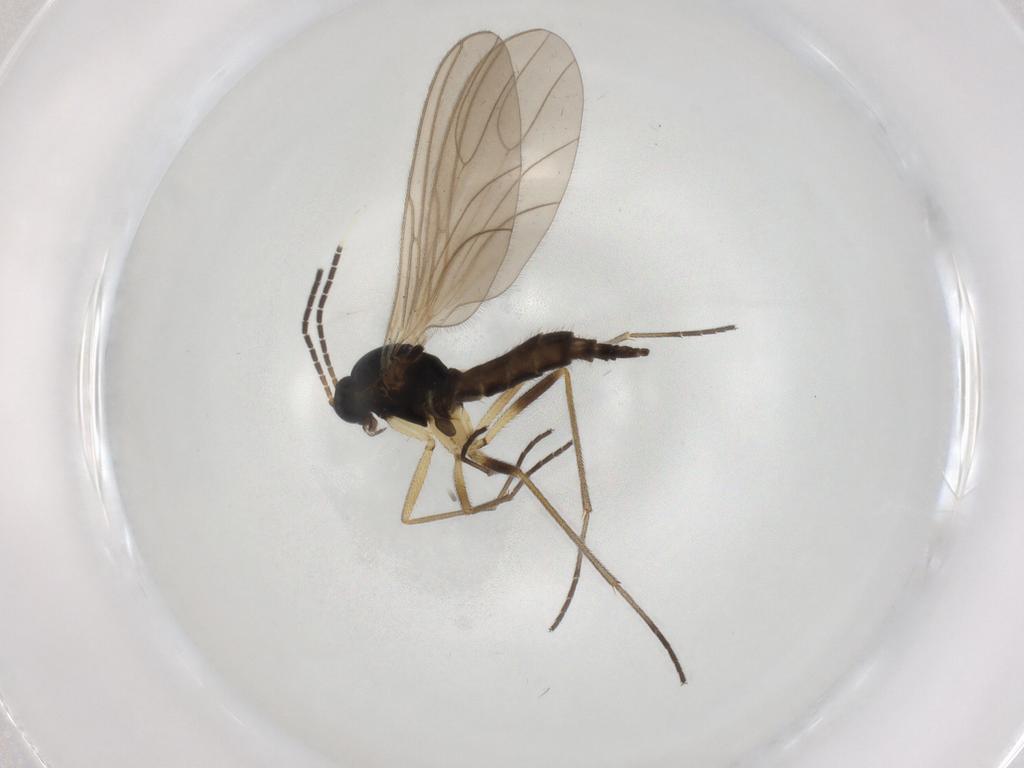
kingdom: Animalia
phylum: Arthropoda
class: Insecta
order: Diptera
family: Sciaridae
